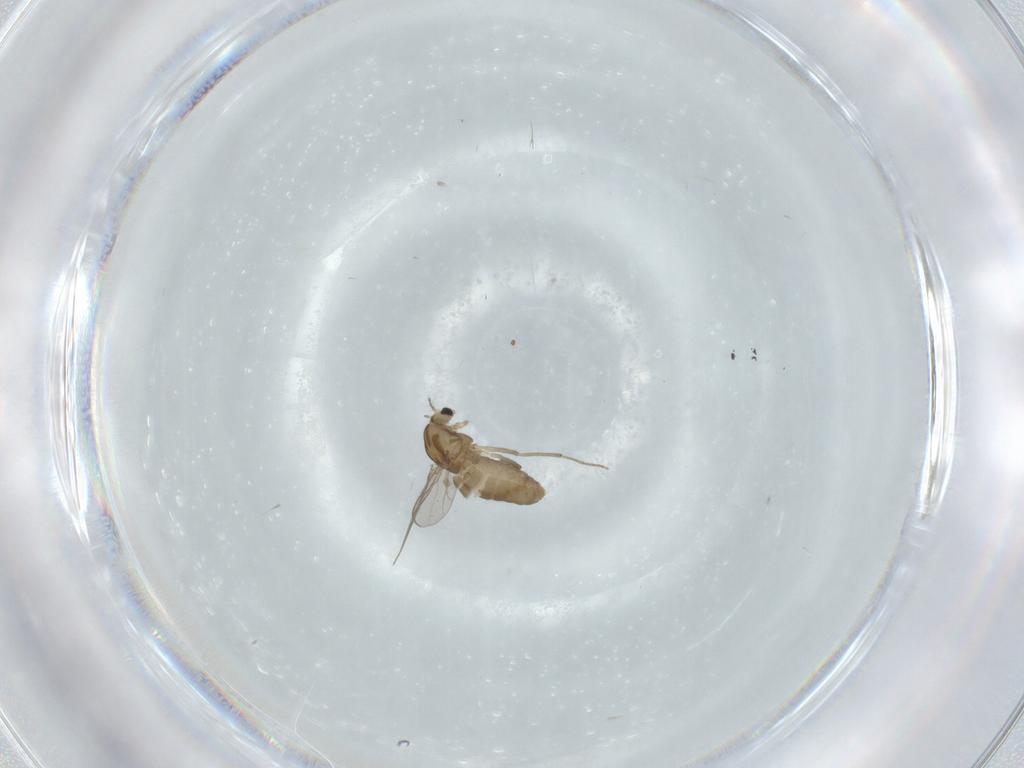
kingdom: Animalia
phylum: Arthropoda
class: Insecta
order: Diptera
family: Chironomidae
